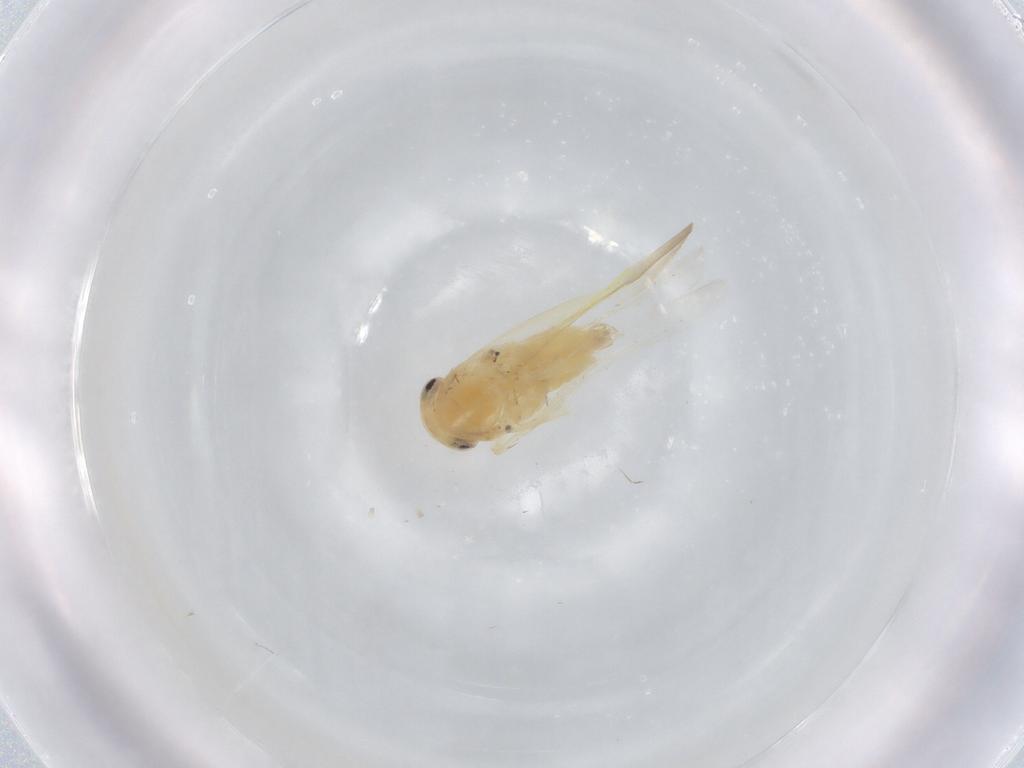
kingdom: Animalia
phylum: Arthropoda
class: Insecta
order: Hemiptera
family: Cicadellidae
